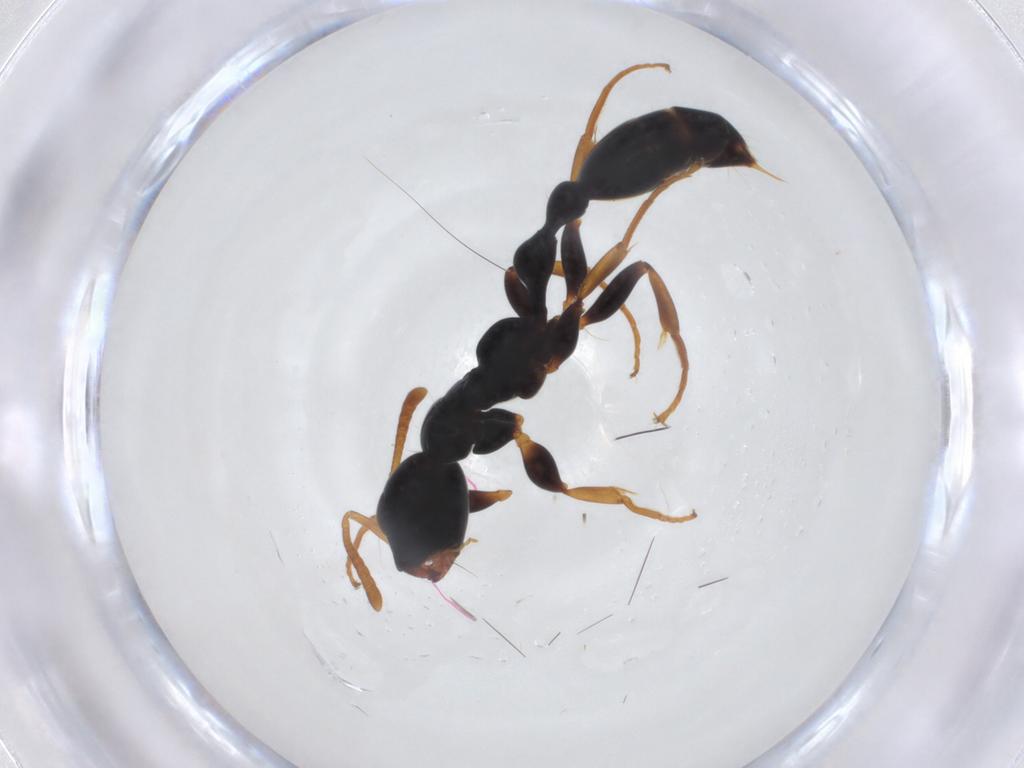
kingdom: Animalia
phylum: Arthropoda
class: Insecta
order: Hymenoptera
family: Formicidae
